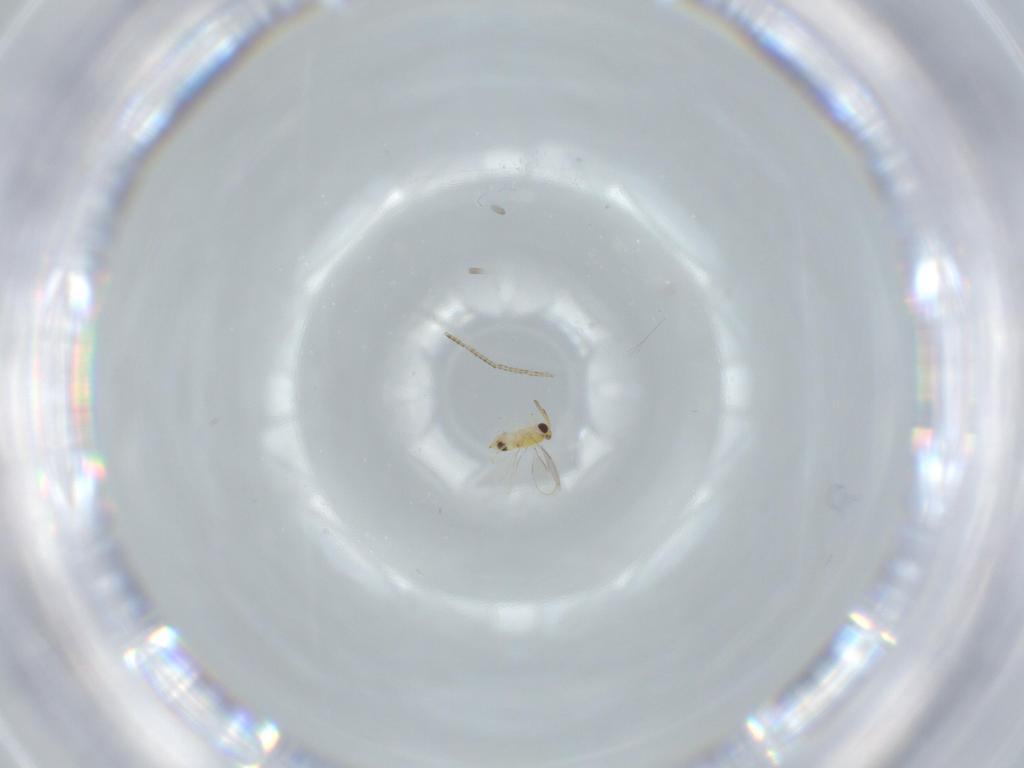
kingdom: Animalia
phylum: Arthropoda
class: Insecta
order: Hymenoptera
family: Aphelinidae
